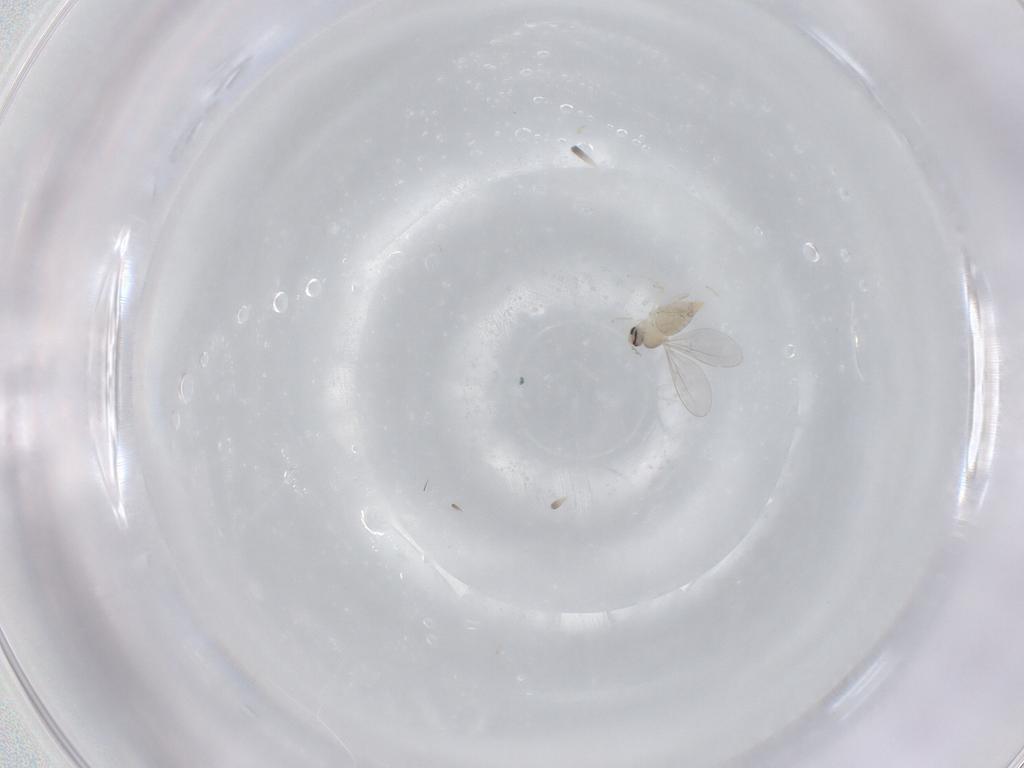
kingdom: Animalia
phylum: Arthropoda
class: Insecta
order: Diptera
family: Cecidomyiidae
